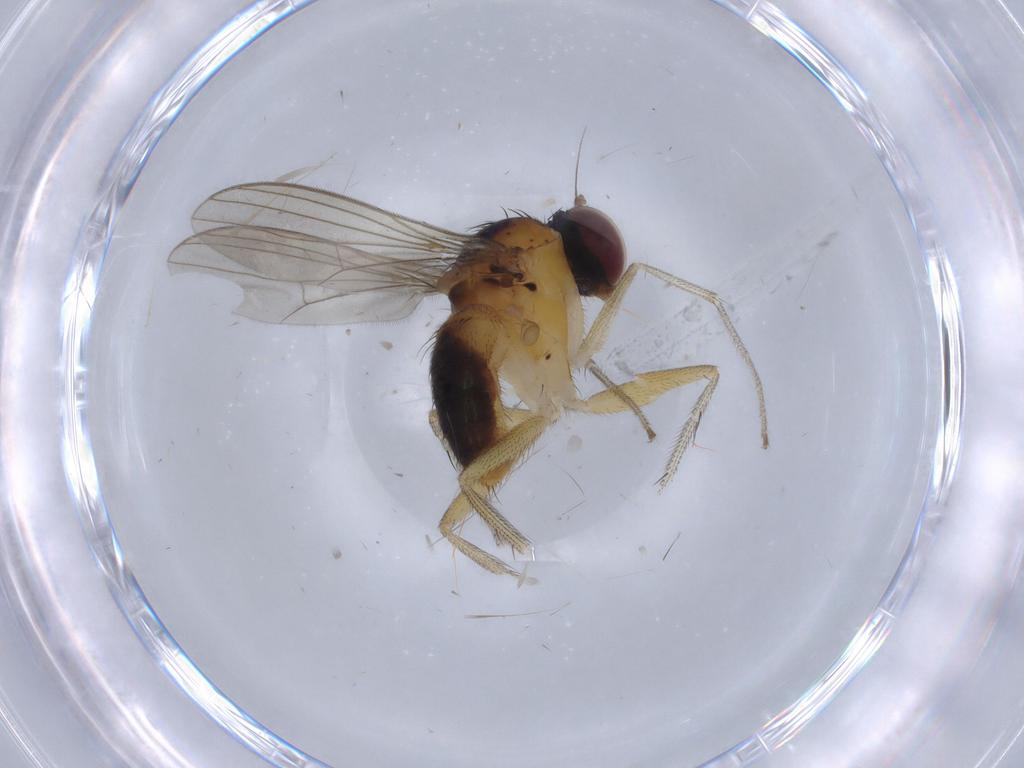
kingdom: Animalia
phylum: Arthropoda
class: Insecta
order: Diptera
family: Dolichopodidae
